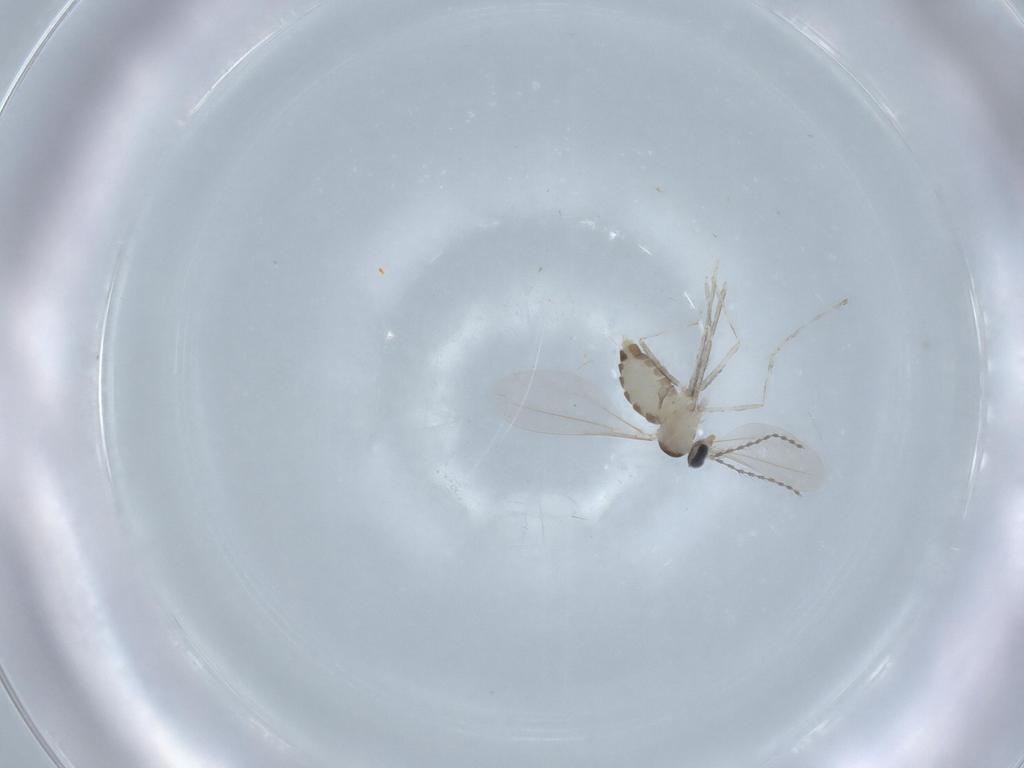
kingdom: Animalia
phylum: Arthropoda
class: Insecta
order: Diptera
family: Cecidomyiidae
